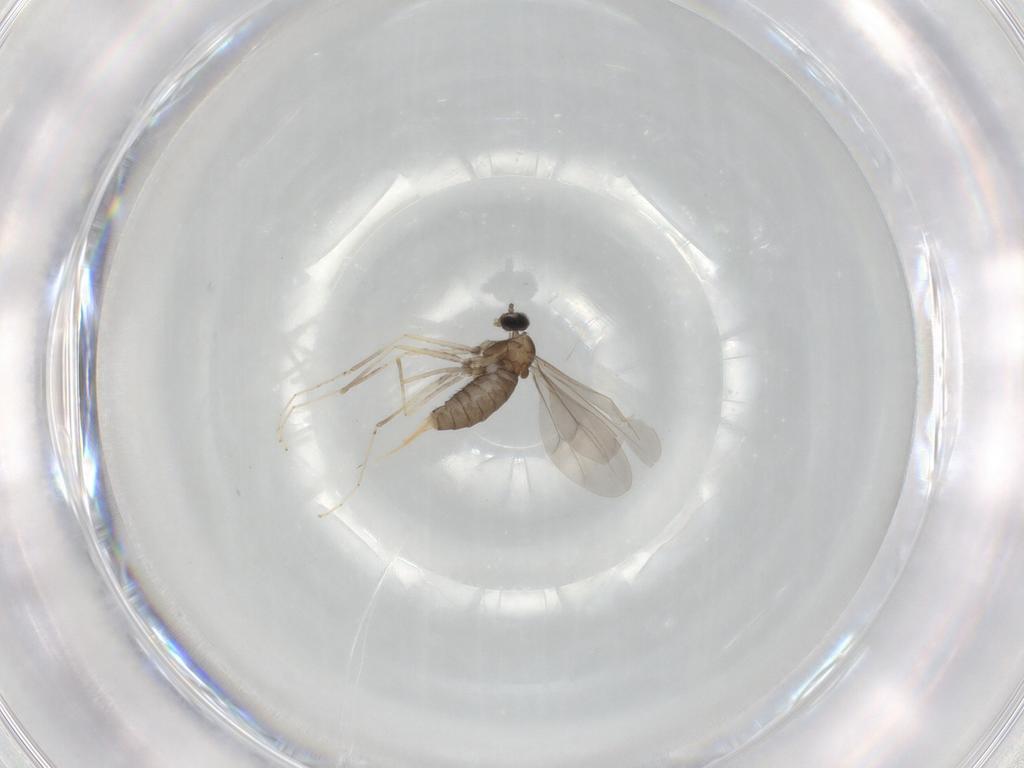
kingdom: Animalia
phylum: Arthropoda
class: Insecta
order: Diptera
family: Cecidomyiidae
